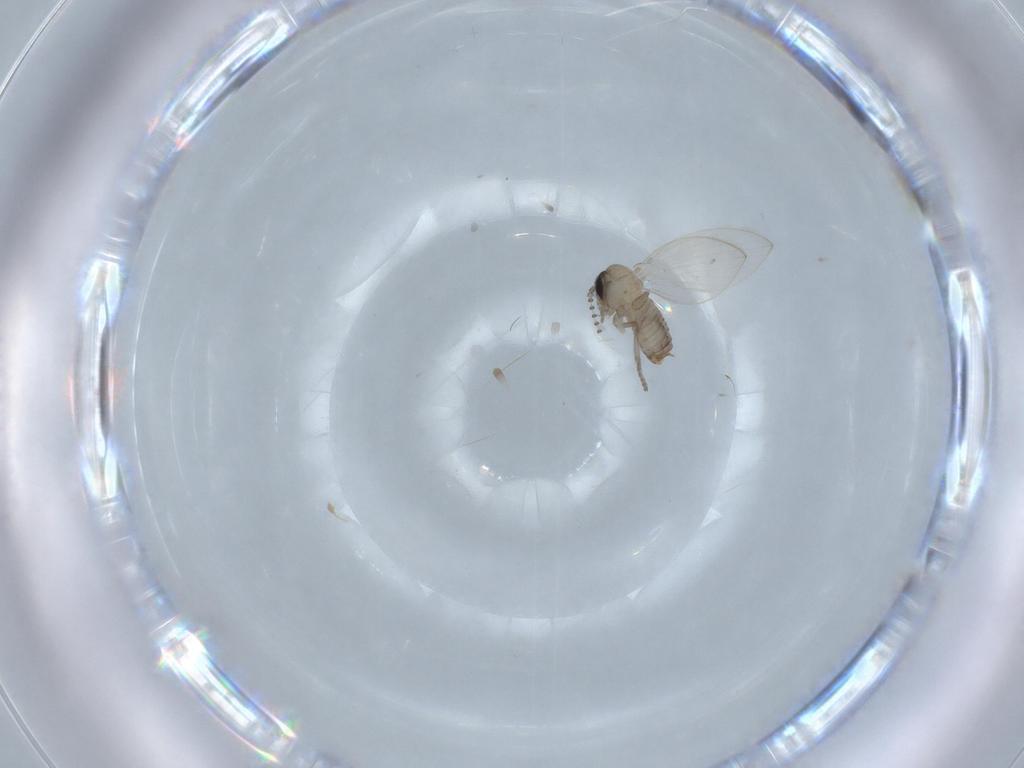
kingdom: Animalia
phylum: Arthropoda
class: Insecta
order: Diptera
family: Psychodidae
